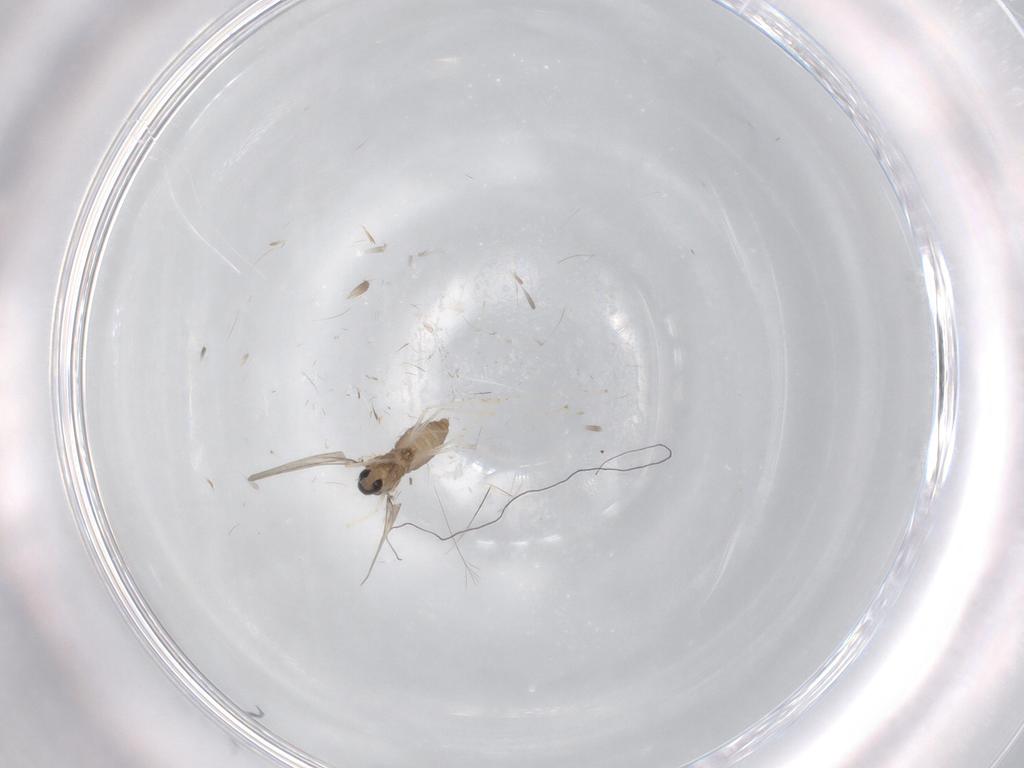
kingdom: Animalia
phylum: Arthropoda
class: Insecta
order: Diptera
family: Cecidomyiidae
